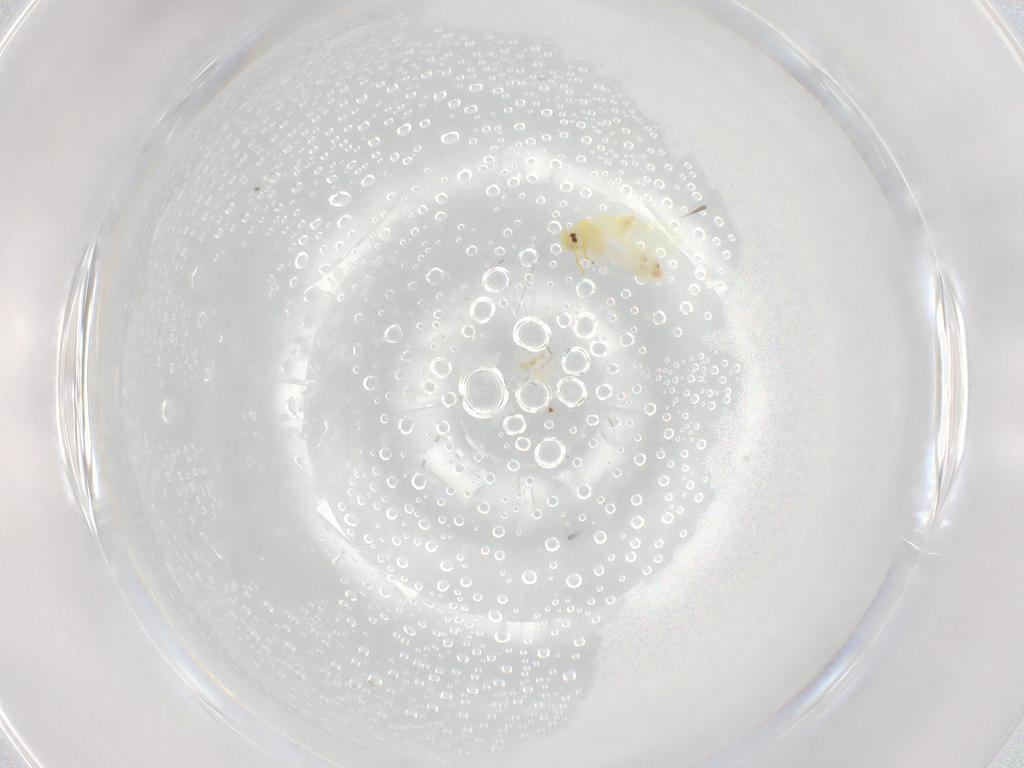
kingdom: Animalia
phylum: Arthropoda
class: Insecta
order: Hemiptera
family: Aleyrodidae
